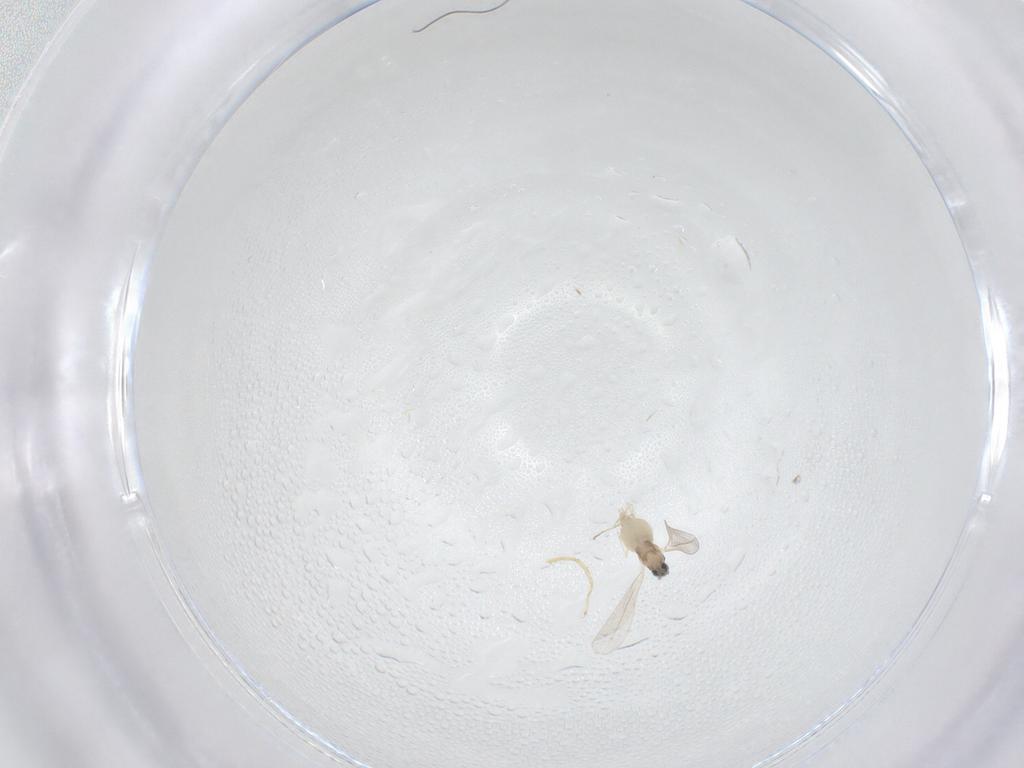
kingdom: Animalia
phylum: Arthropoda
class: Insecta
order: Diptera
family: Cecidomyiidae
